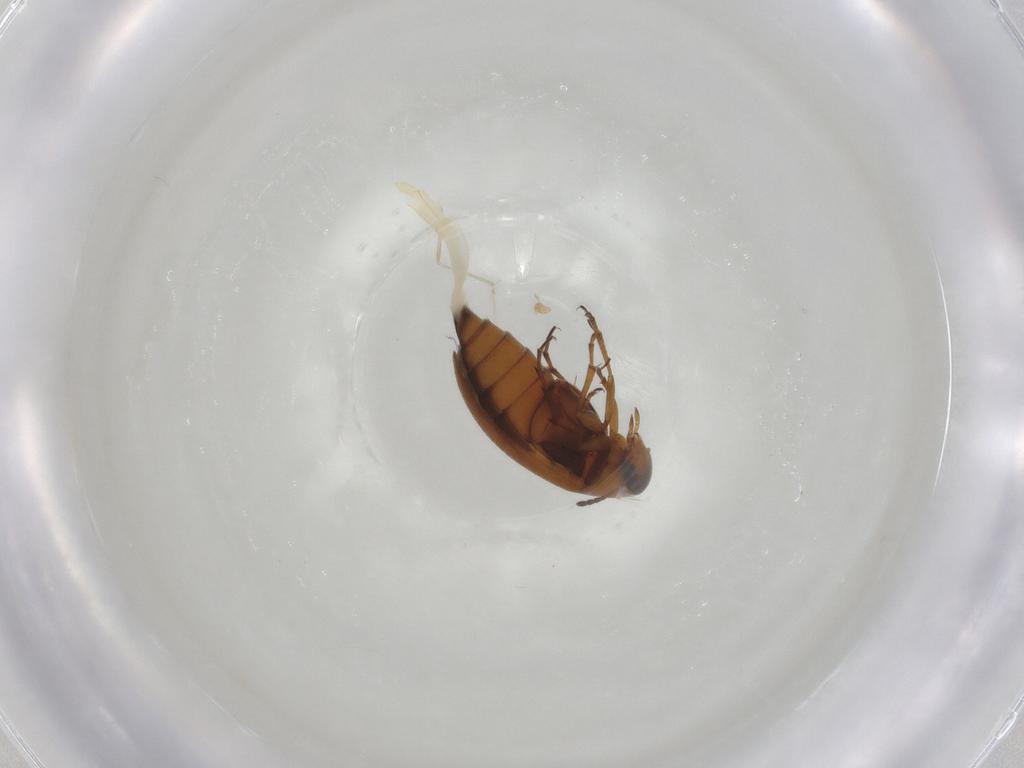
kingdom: Animalia
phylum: Arthropoda
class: Insecta
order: Coleoptera
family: Scraptiidae
